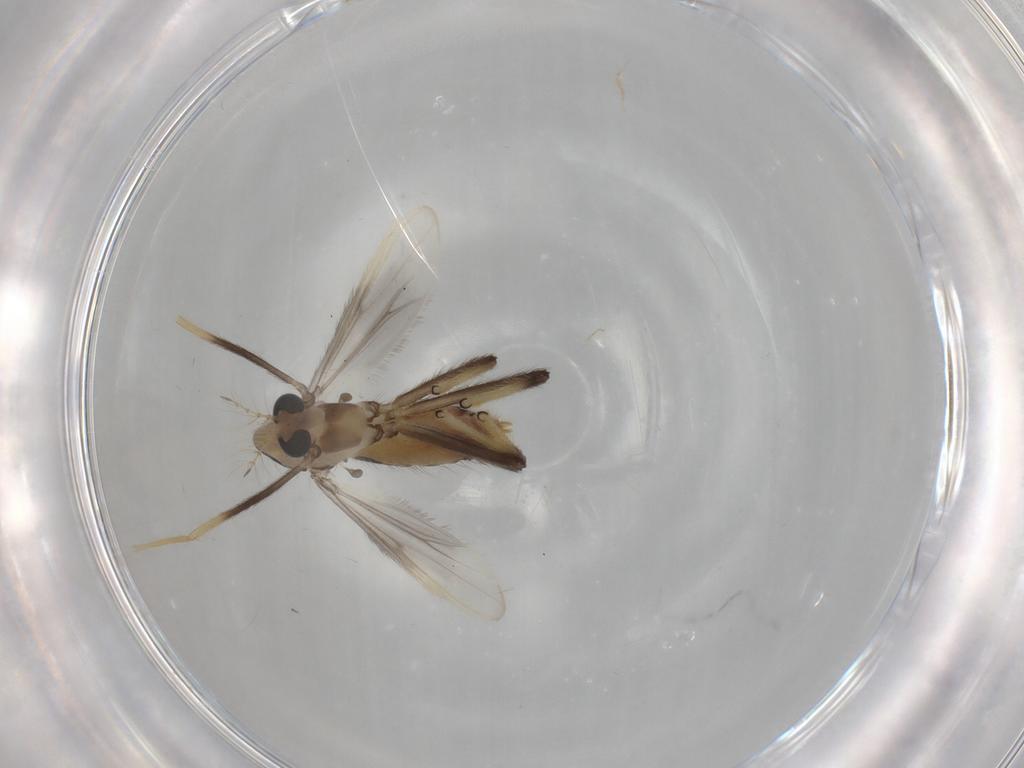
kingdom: Animalia
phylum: Arthropoda
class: Insecta
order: Diptera
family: Chironomidae
